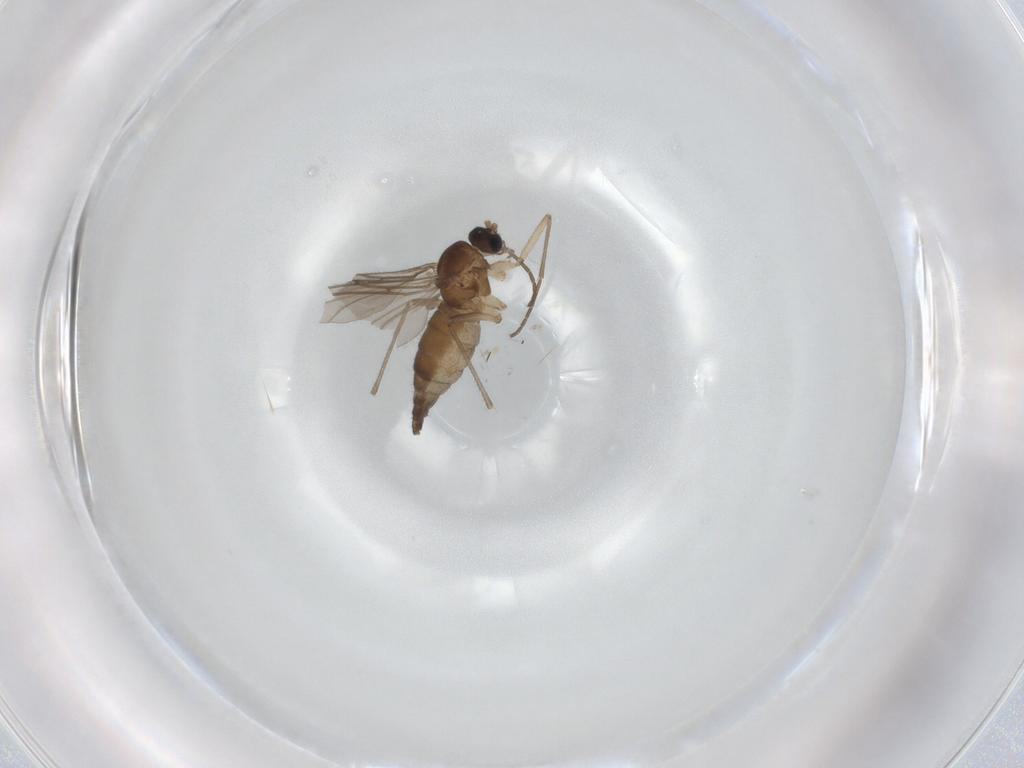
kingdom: Animalia
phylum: Arthropoda
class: Insecta
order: Diptera
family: Sciaridae
